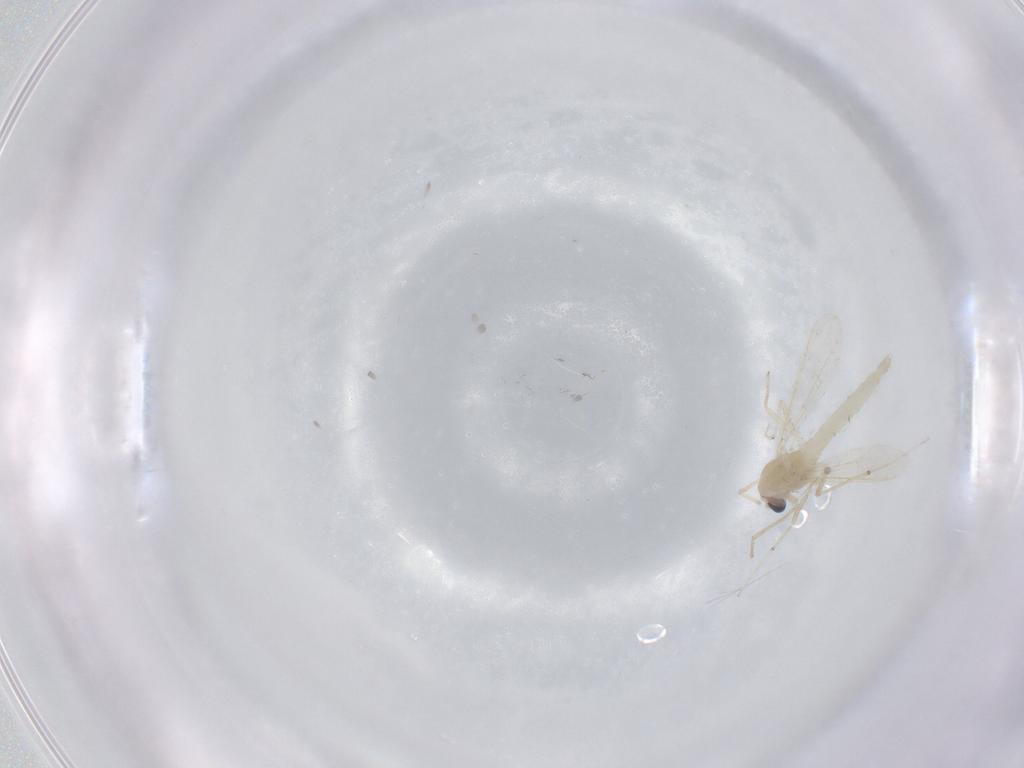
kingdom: Animalia
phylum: Arthropoda
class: Insecta
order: Diptera
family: Chironomidae
